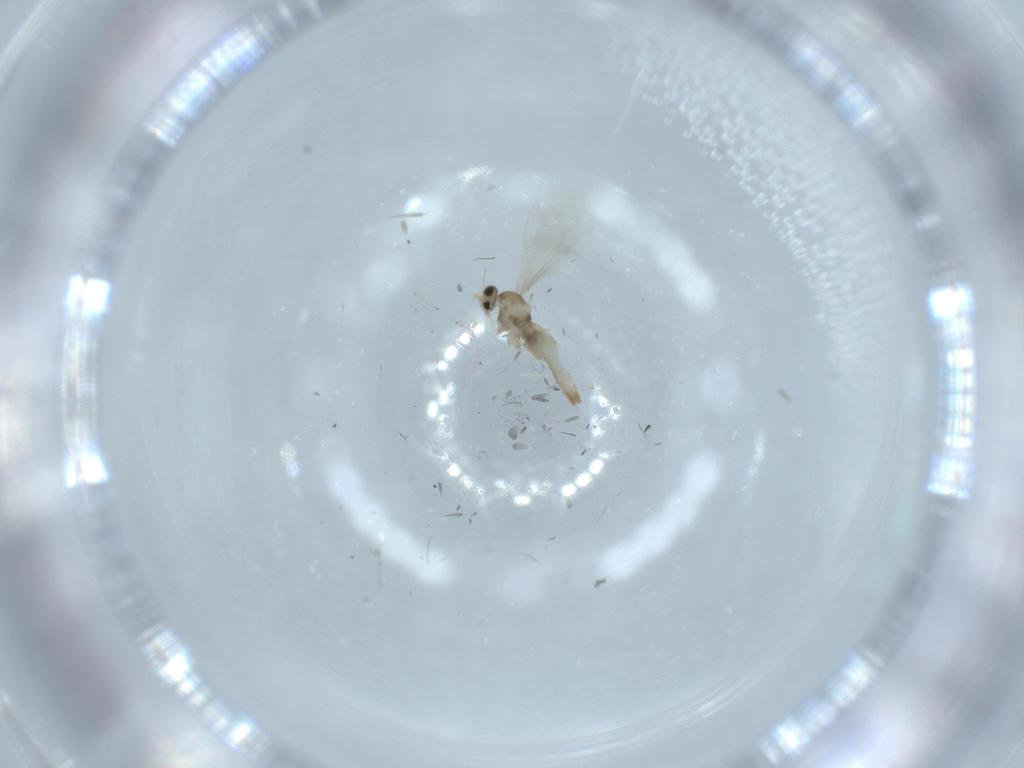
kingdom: Animalia
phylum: Arthropoda
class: Insecta
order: Diptera
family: Cecidomyiidae
